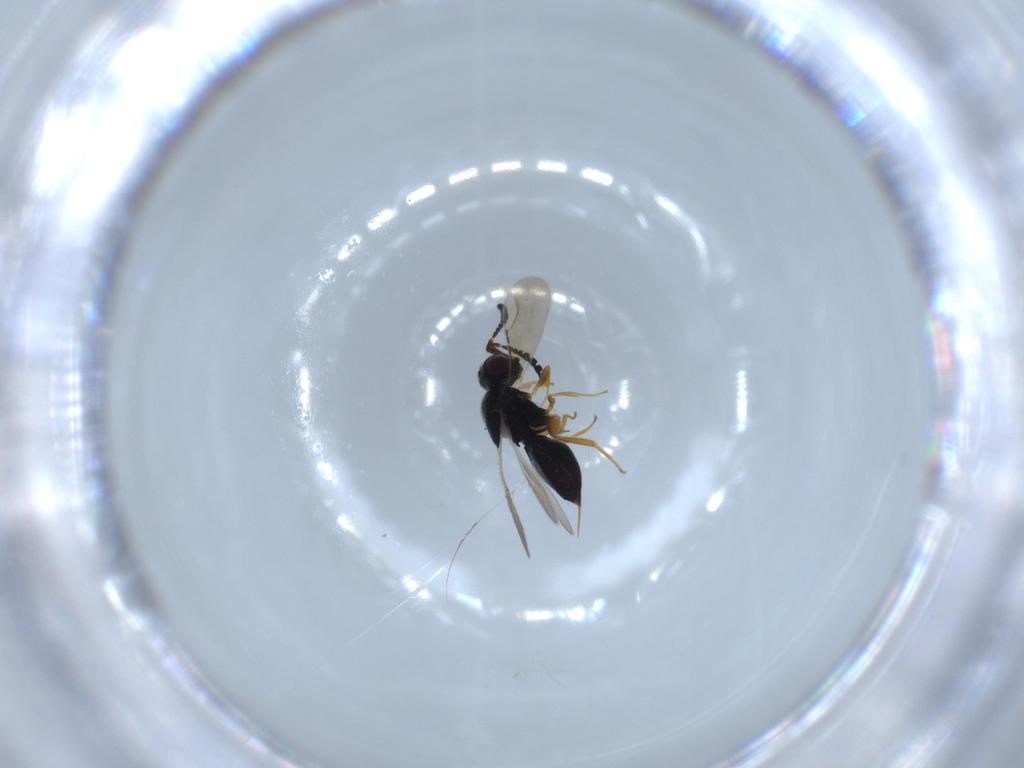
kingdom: Animalia
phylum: Arthropoda
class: Insecta
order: Hymenoptera
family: Ceraphronidae
